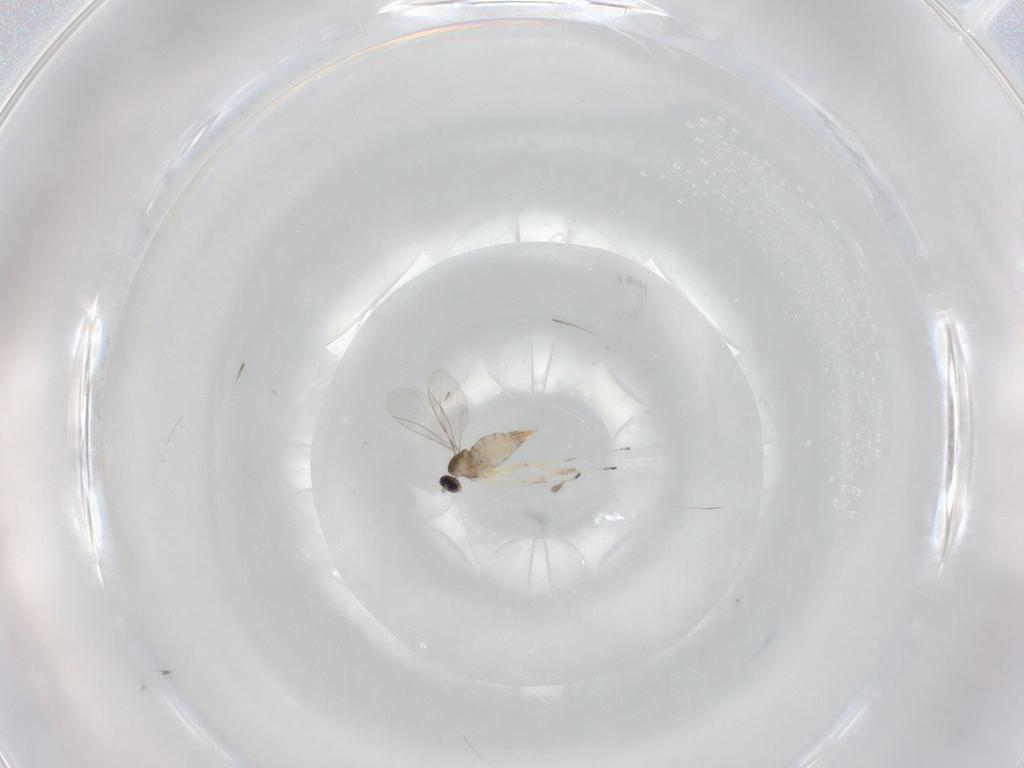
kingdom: Animalia
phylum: Arthropoda
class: Insecta
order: Diptera
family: Cecidomyiidae
